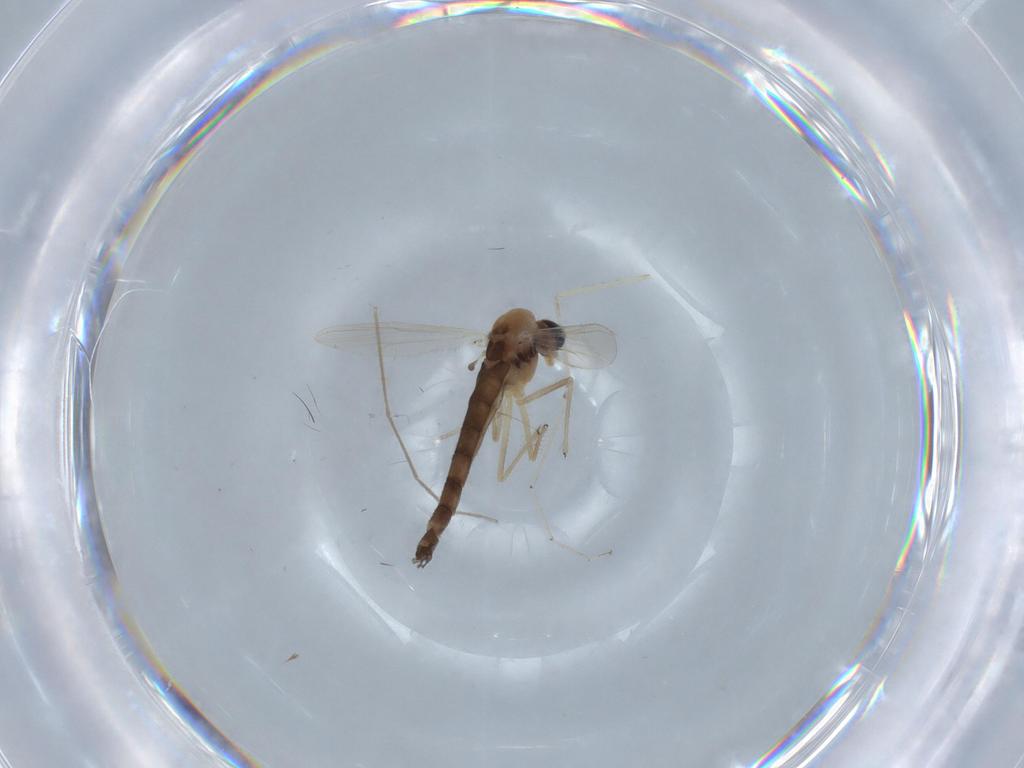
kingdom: Animalia
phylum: Arthropoda
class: Insecta
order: Diptera
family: Chironomidae
